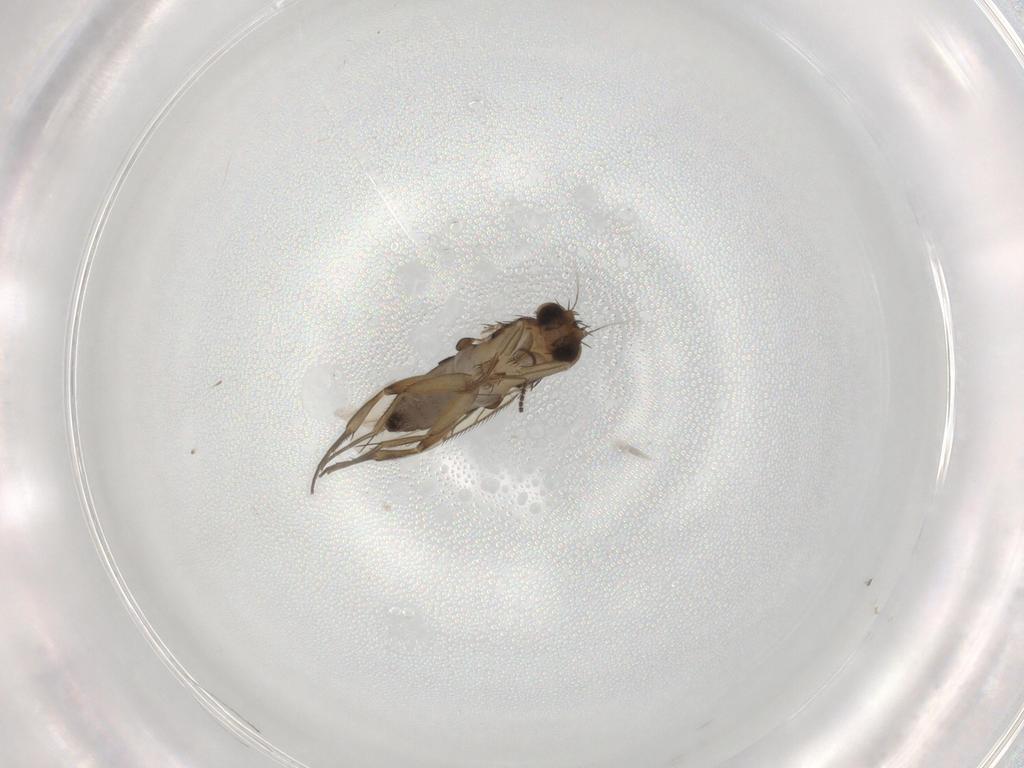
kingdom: Animalia
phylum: Arthropoda
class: Insecta
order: Diptera
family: Phoridae
